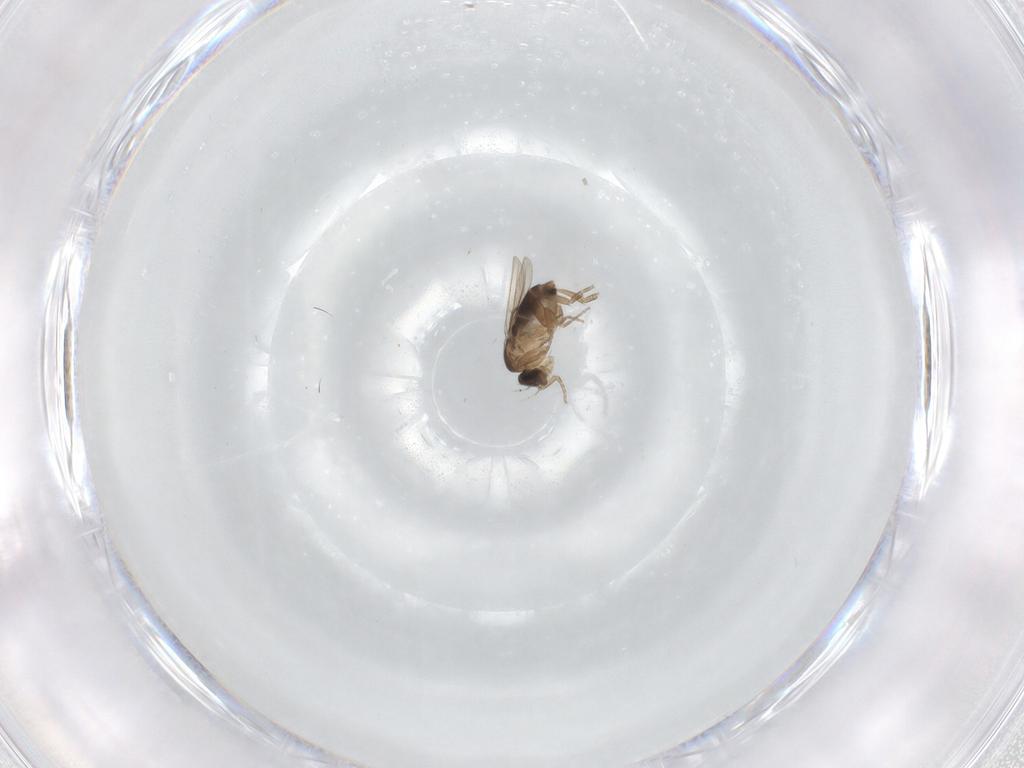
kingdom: Animalia
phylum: Arthropoda
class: Insecta
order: Diptera
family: Phoridae
